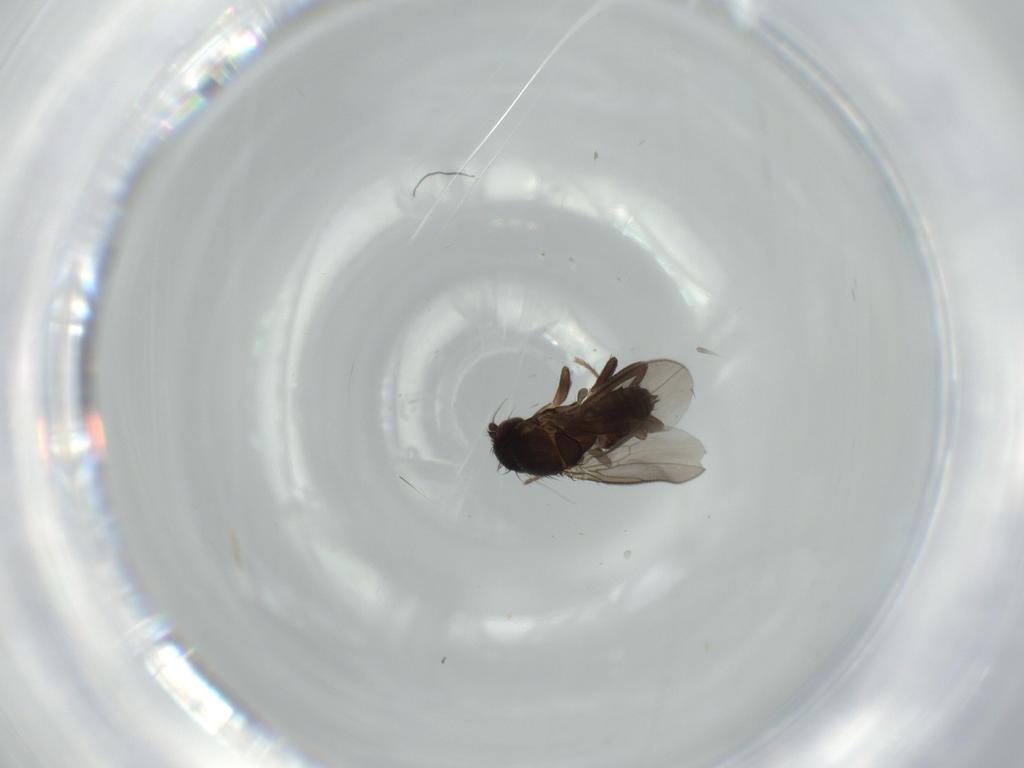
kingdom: Animalia
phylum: Arthropoda
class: Insecta
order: Diptera
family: Sphaeroceridae
